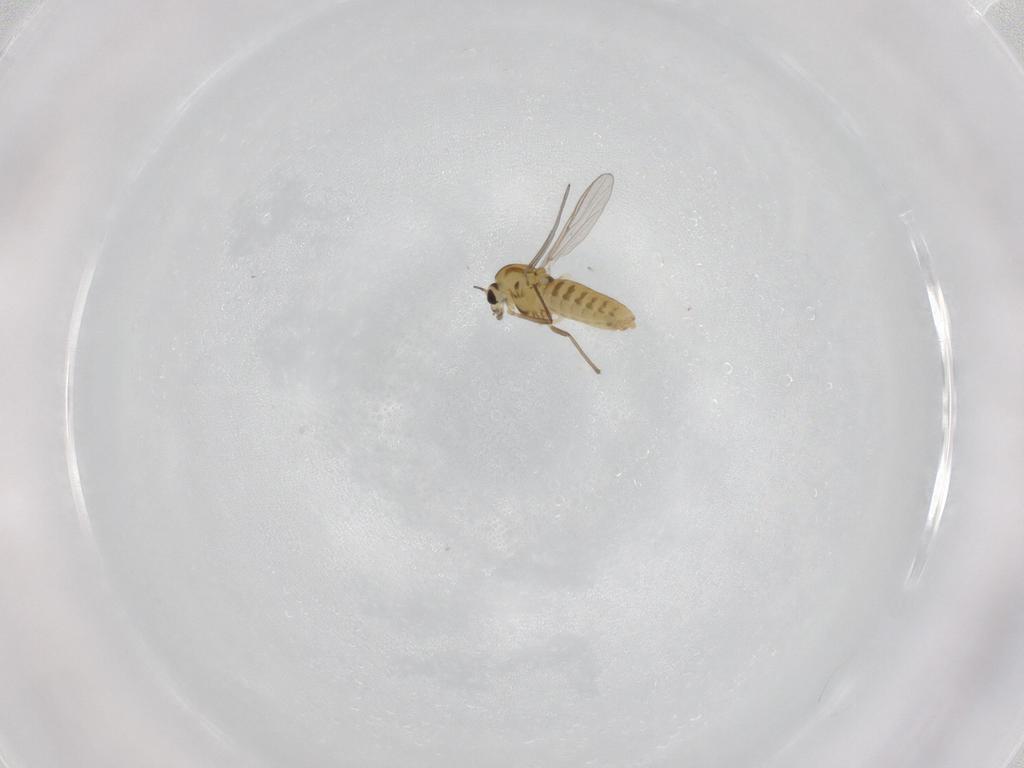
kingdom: Animalia
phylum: Arthropoda
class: Insecta
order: Diptera
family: Chironomidae
